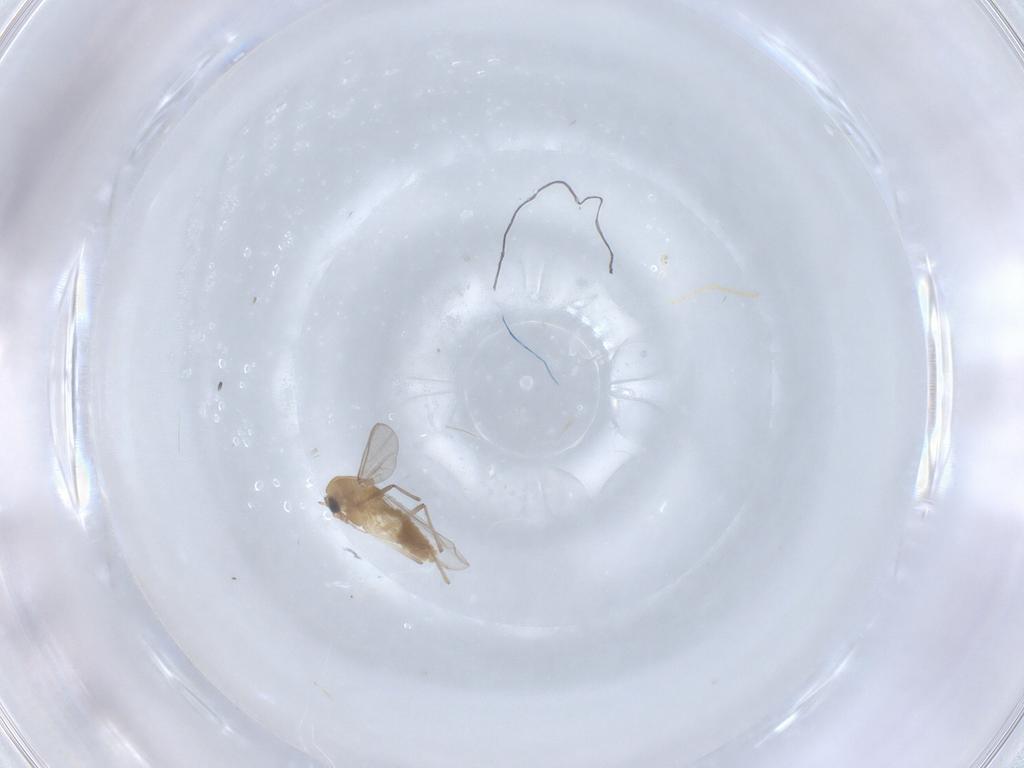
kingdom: Animalia
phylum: Arthropoda
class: Insecta
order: Diptera
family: Chironomidae
